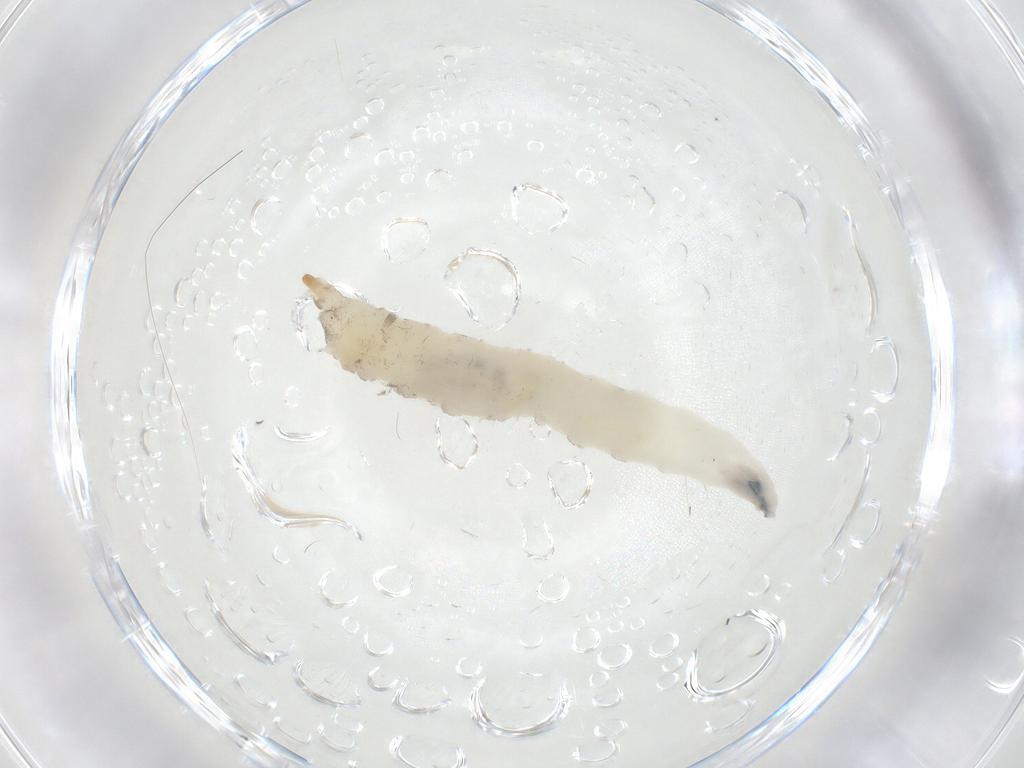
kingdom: Animalia
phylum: Arthropoda
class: Insecta
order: Diptera
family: Drosophilidae
